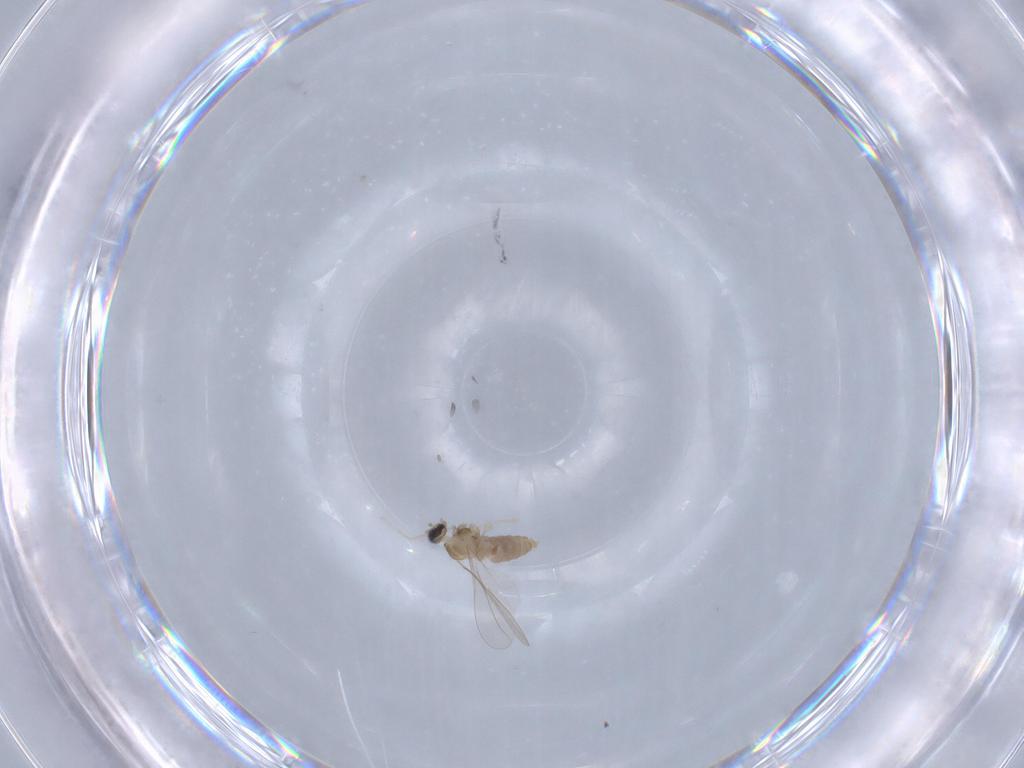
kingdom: Animalia
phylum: Arthropoda
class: Insecta
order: Diptera
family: Cecidomyiidae
